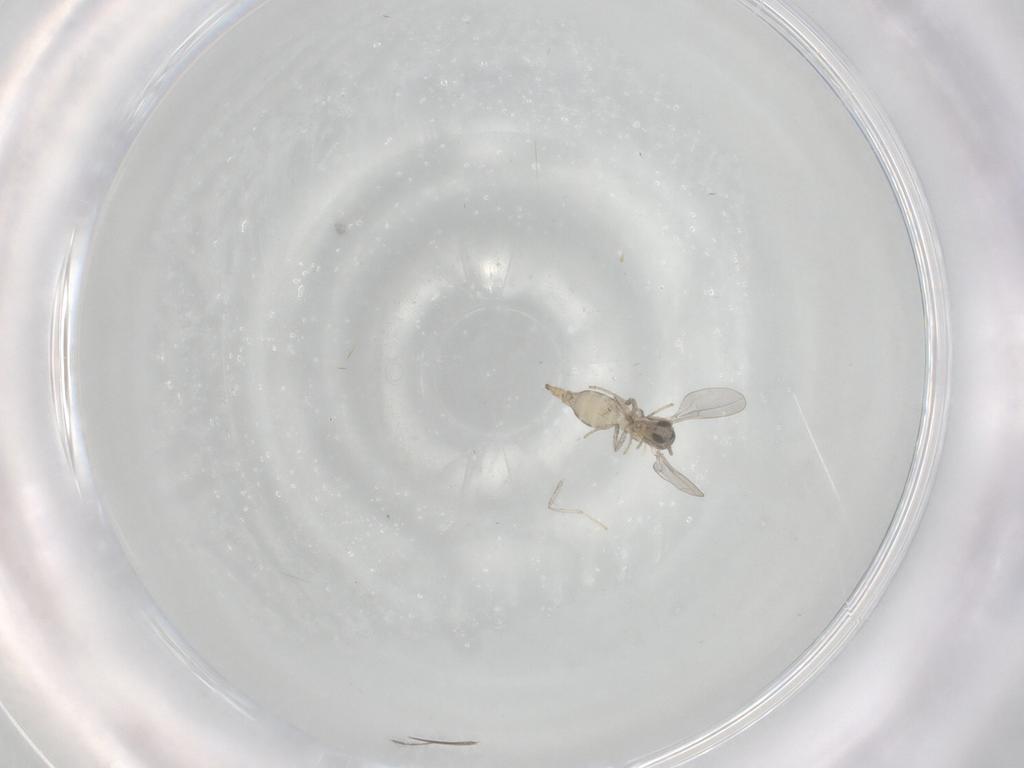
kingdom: Animalia
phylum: Arthropoda
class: Insecta
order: Diptera
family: Cecidomyiidae
